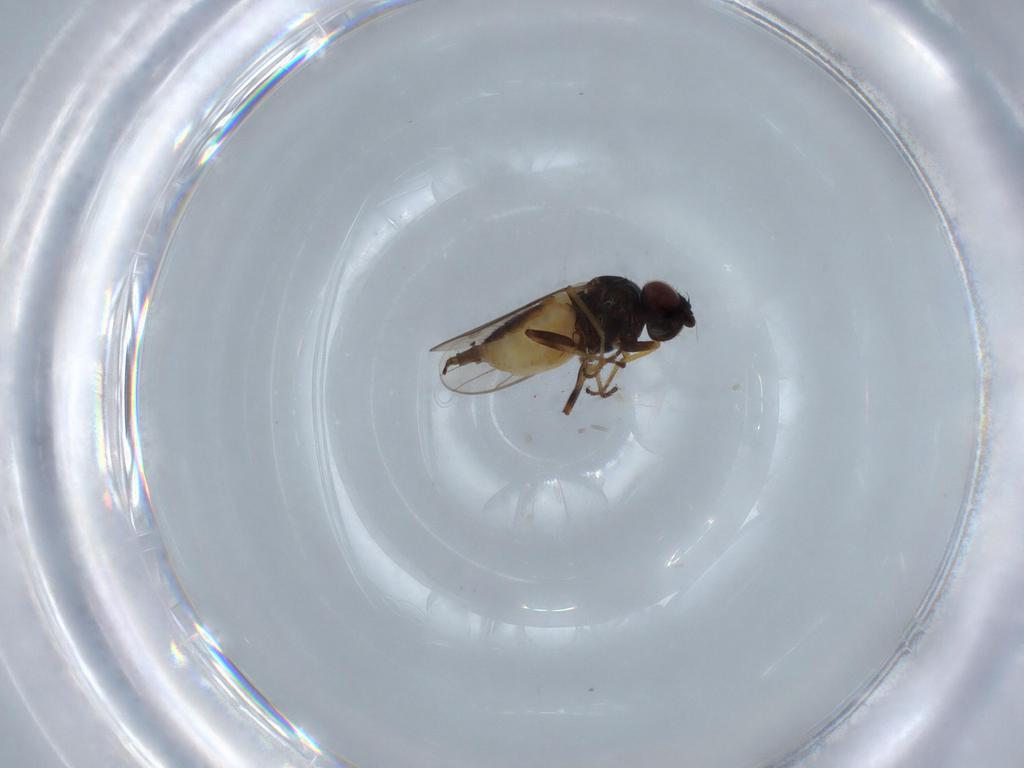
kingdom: Animalia
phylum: Arthropoda
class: Insecta
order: Diptera
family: Chloropidae
